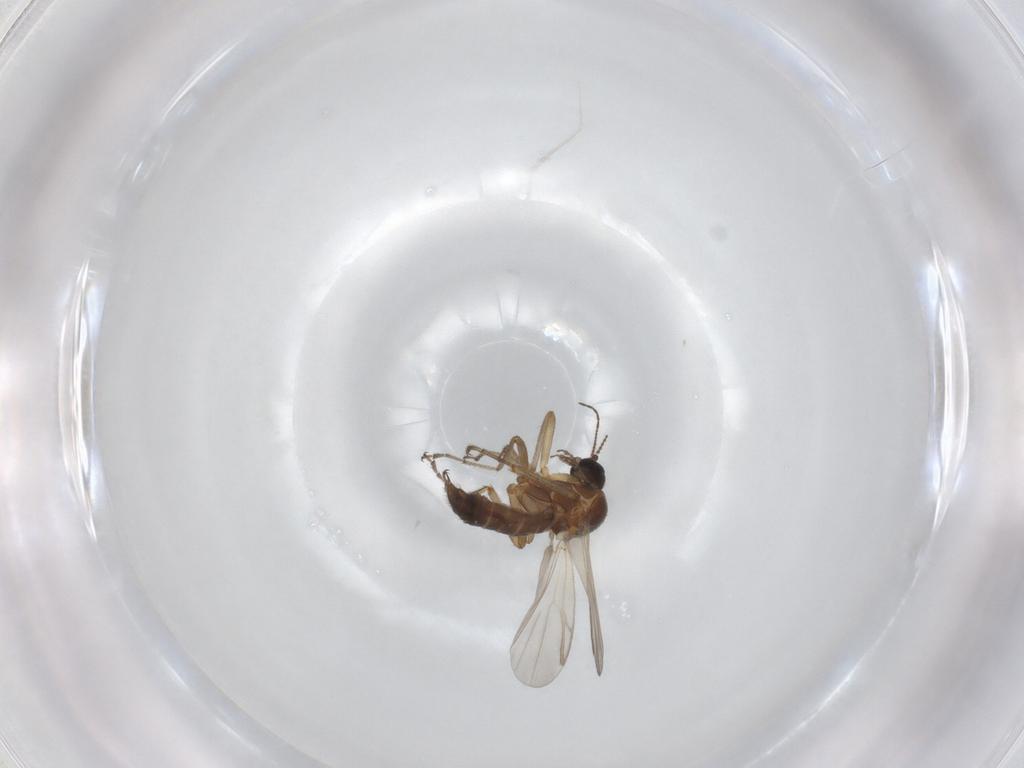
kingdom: Animalia
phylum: Arthropoda
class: Insecta
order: Diptera
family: Ceratopogonidae
